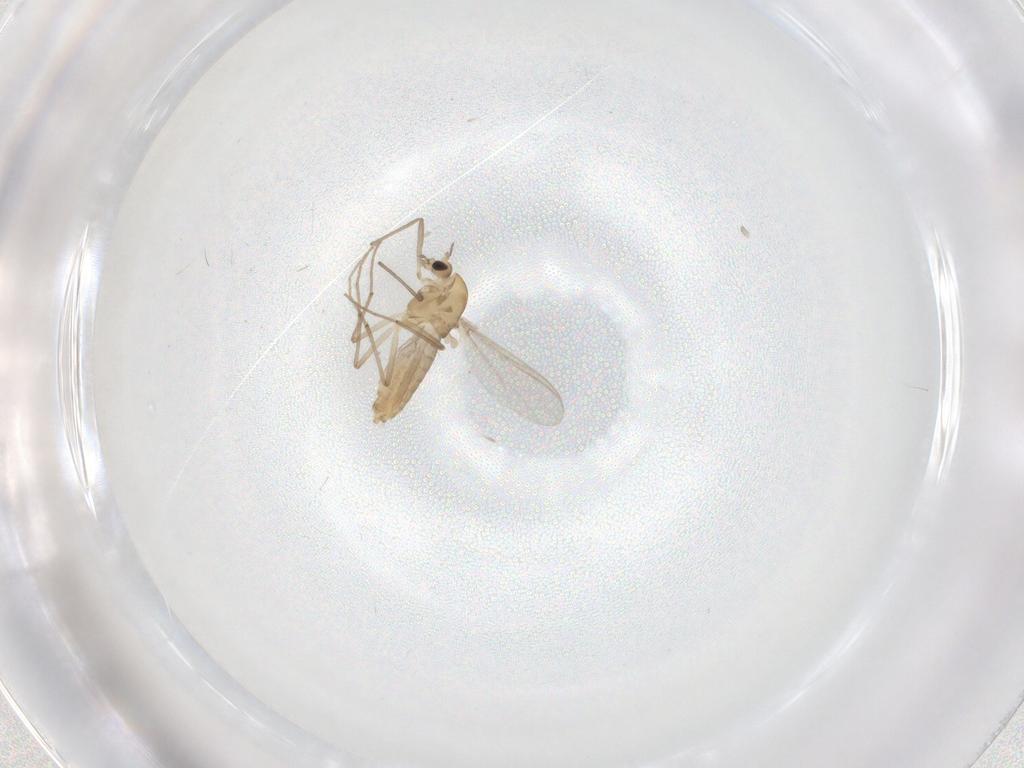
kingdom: Animalia
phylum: Arthropoda
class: Insecta
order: Diptera
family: Chironomidae
